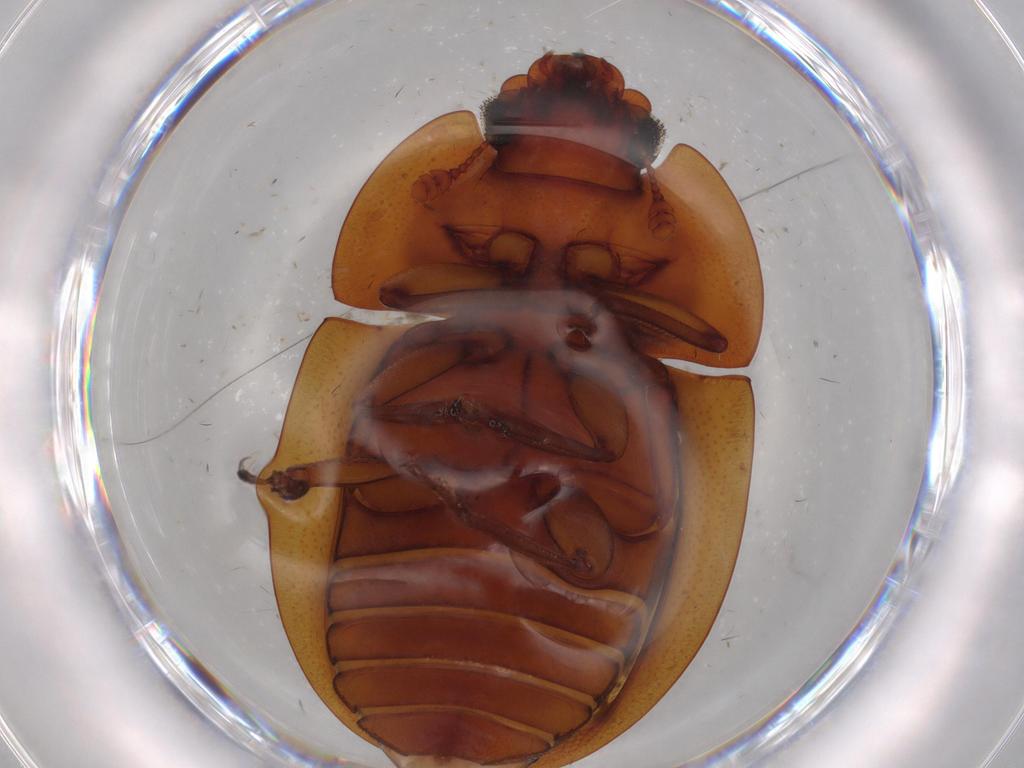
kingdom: Animalia
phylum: Arthropoda
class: Insecta
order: Coleoptera
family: Nitidulidae
